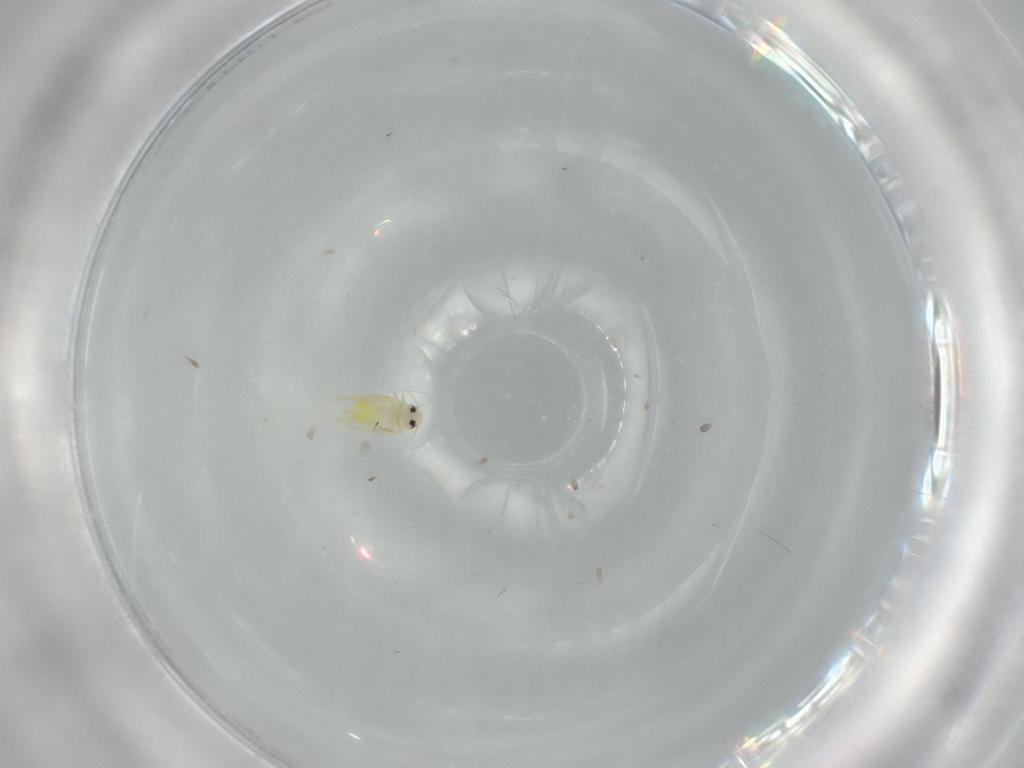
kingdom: Animalia
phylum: Arthropoda
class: Insecta
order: Hemiptera
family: Aleyrodidae
